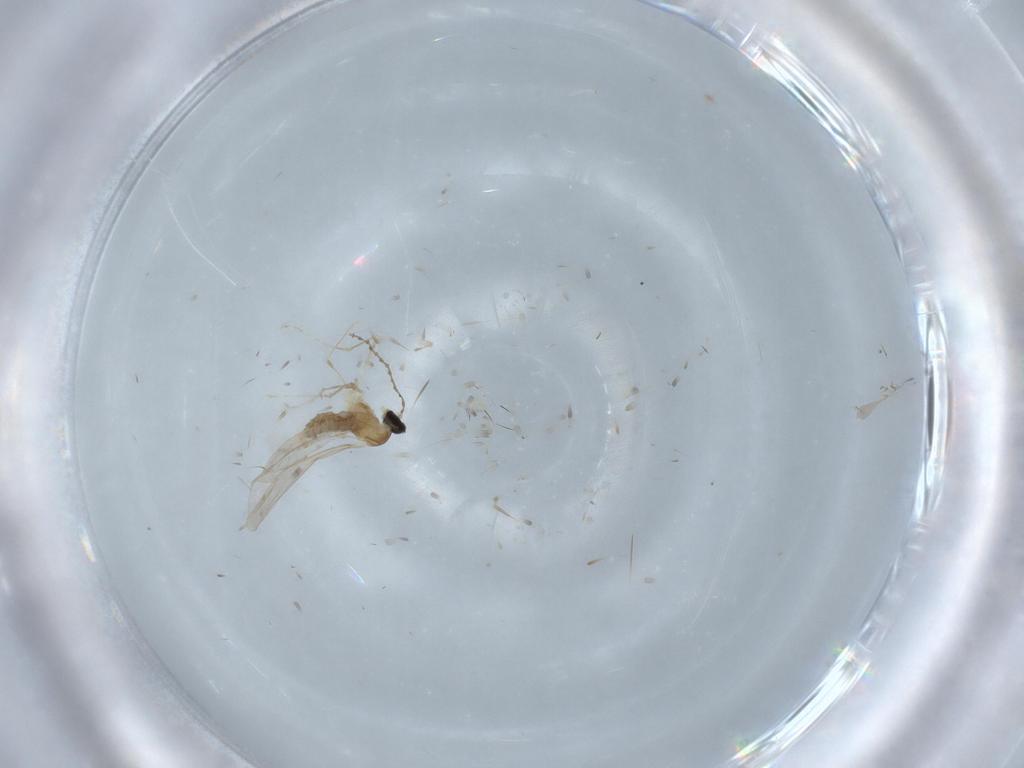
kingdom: Animalia
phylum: Arthropoda
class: Insecta
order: Diptera
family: Cecidomyiidae
